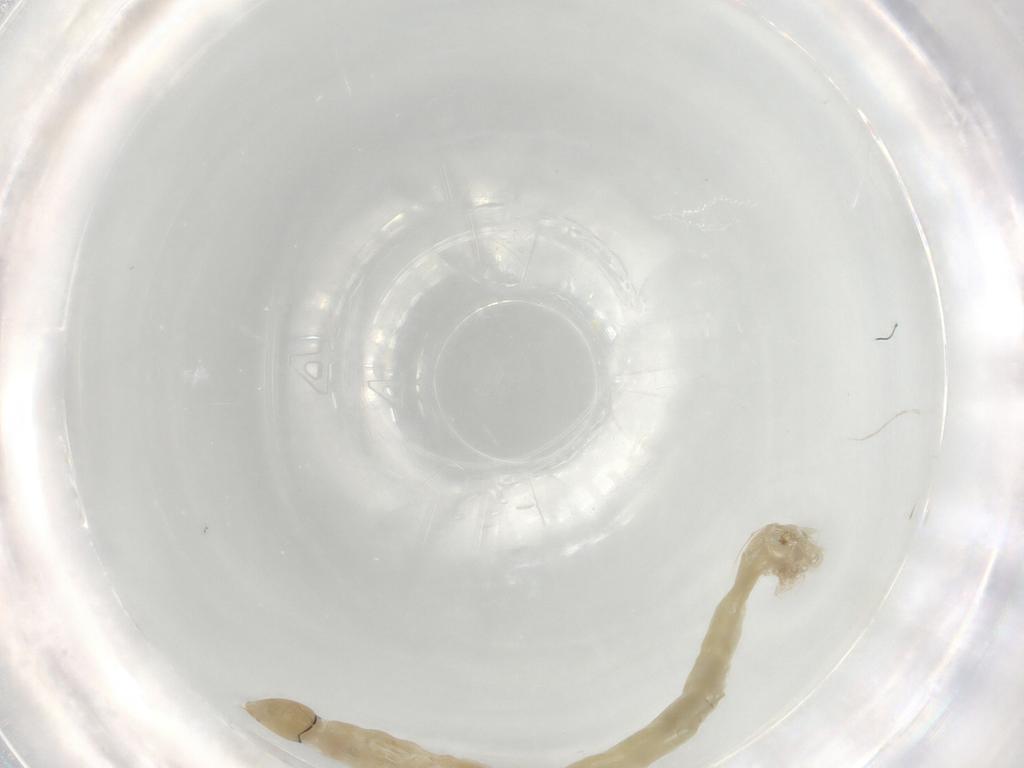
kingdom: Animalia
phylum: Arthropoda
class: Insecta
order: Diptera
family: Chironomidae
